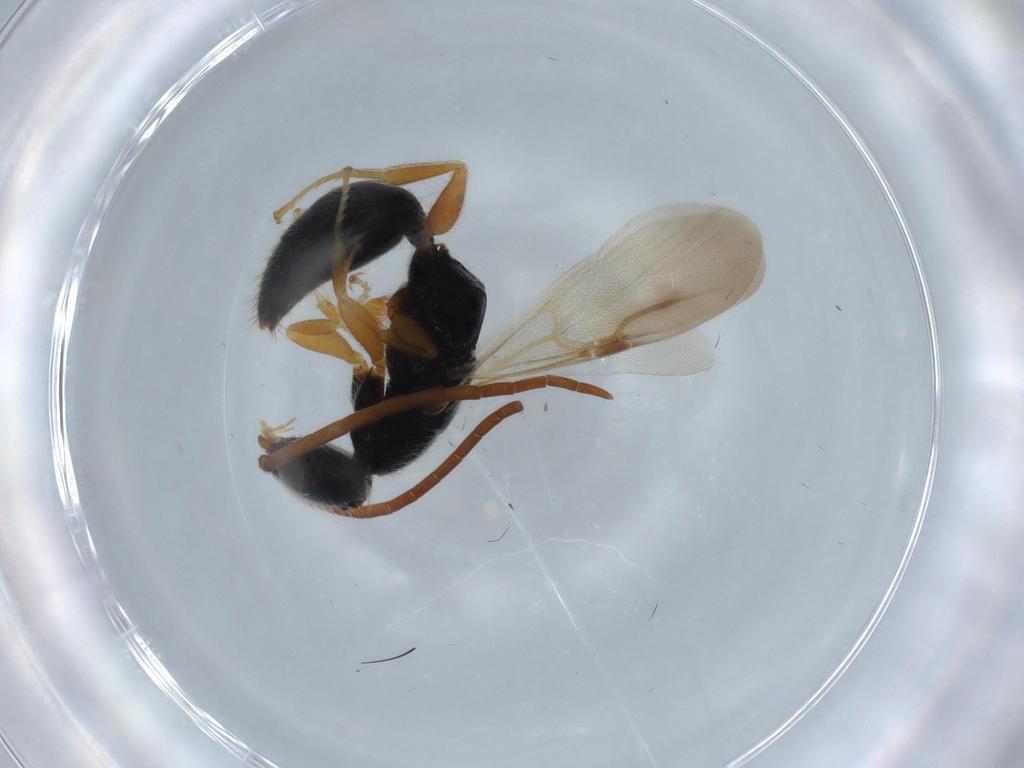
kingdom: Animalia
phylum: Arthropoda
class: Insecta
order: Hymenoptera
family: Bethylidae
